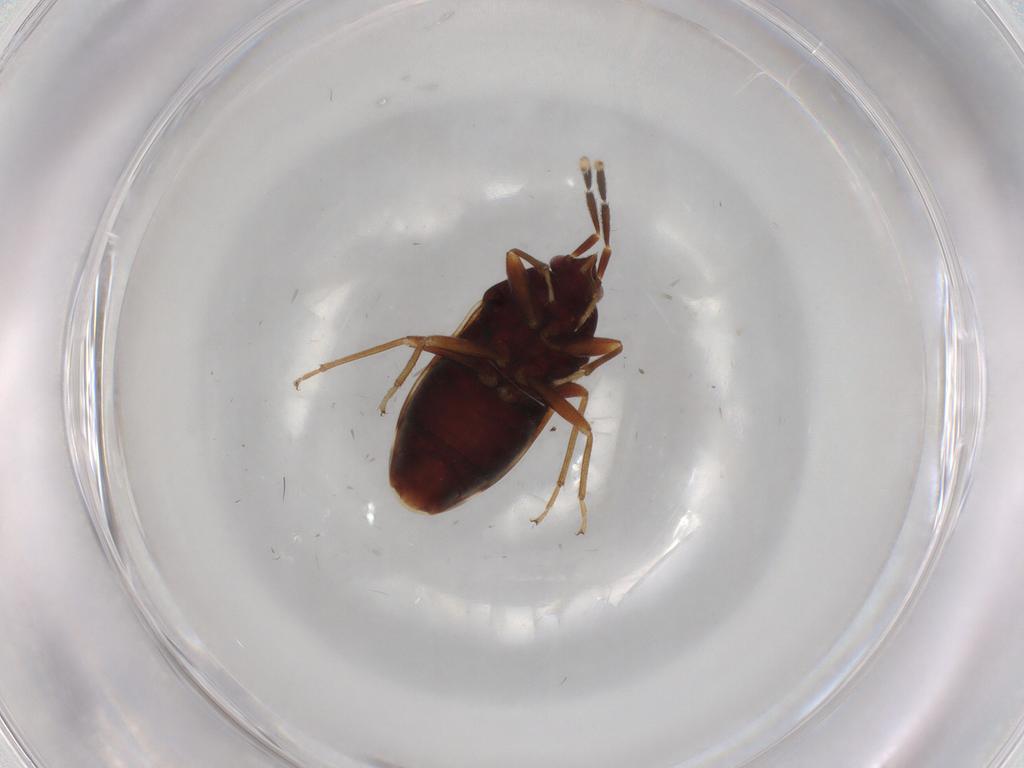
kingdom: Animalia
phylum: Arthropoda
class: Insecta
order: Hemiptera
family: Rhyparochromidae
